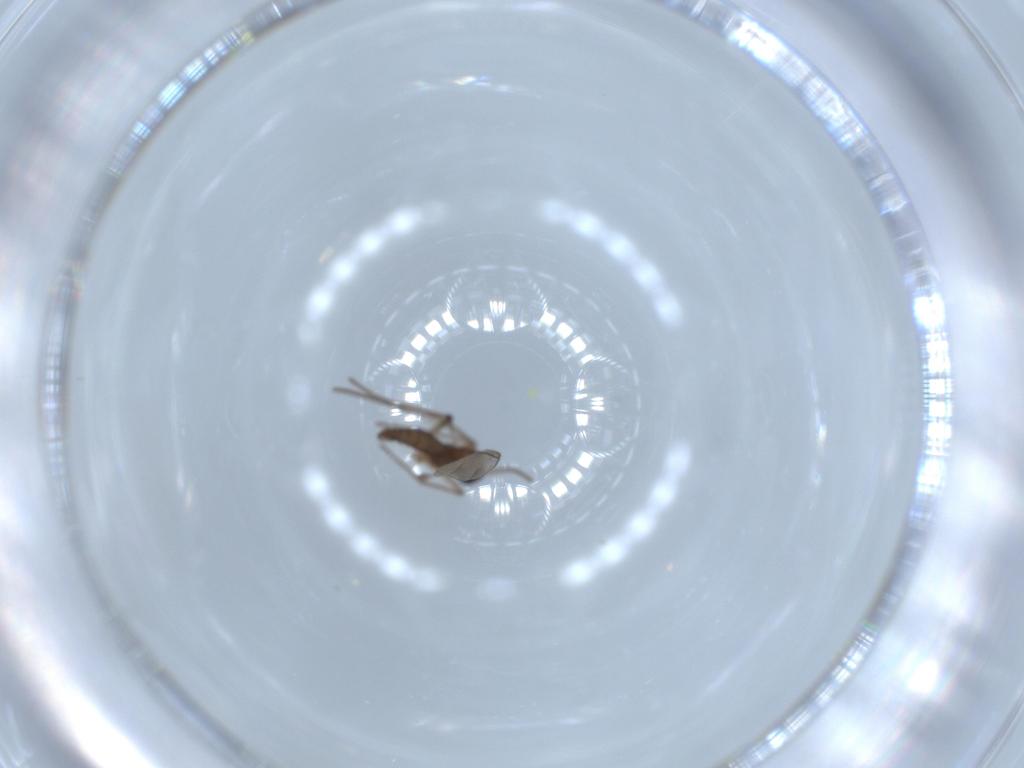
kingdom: Animalia
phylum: Arthropoda
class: Insecta
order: Diptera
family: Sciaridae
